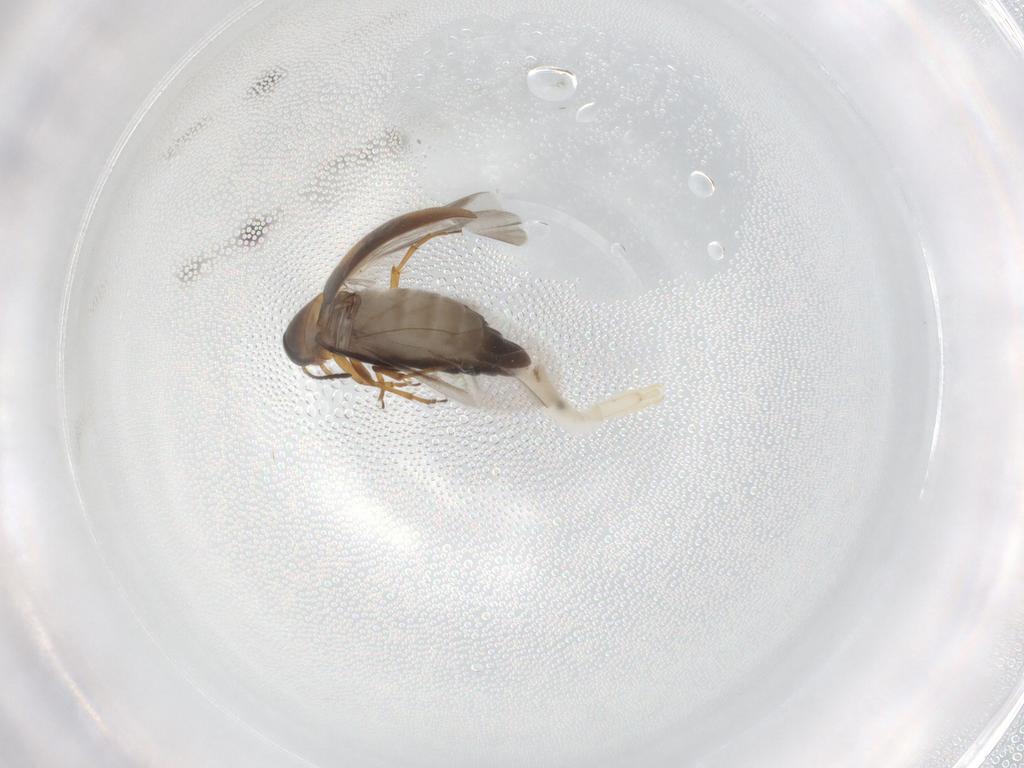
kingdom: Animalia
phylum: Arthropoda
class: Insecta
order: Coleoptera
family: Scraptiidae
